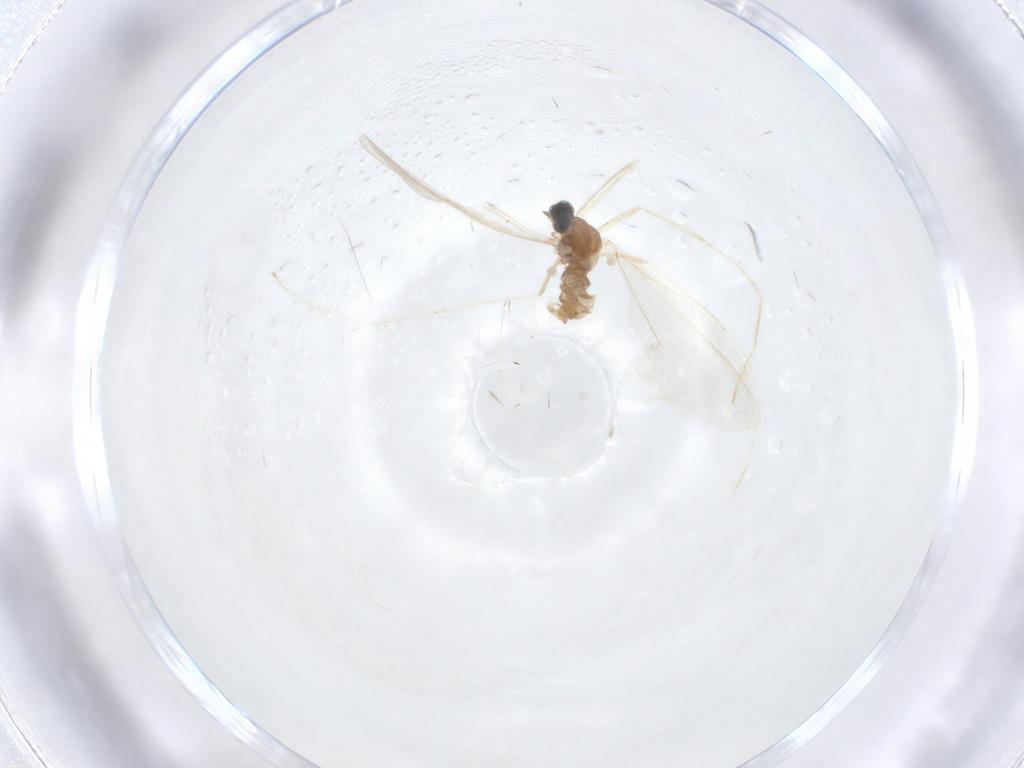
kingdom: Animalia
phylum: Arthropoda
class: Insecta
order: Diptera
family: Cecidomyiidae
